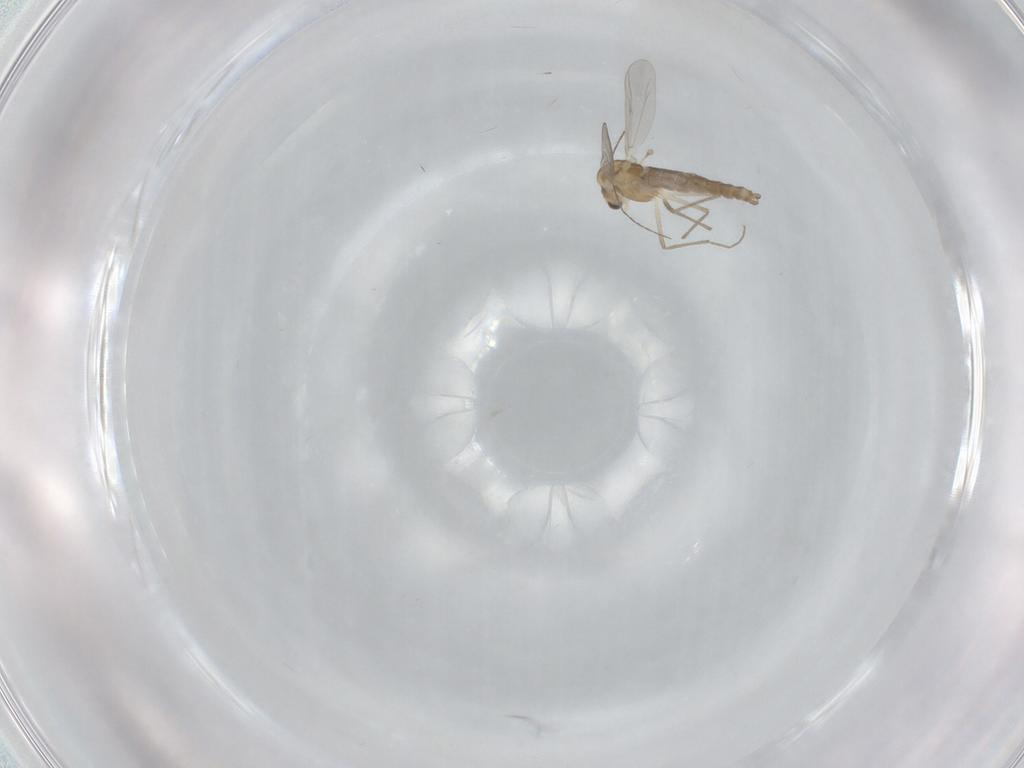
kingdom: Animalia
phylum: Arthropoda
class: Insecta
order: Diptera
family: Chironomidae
